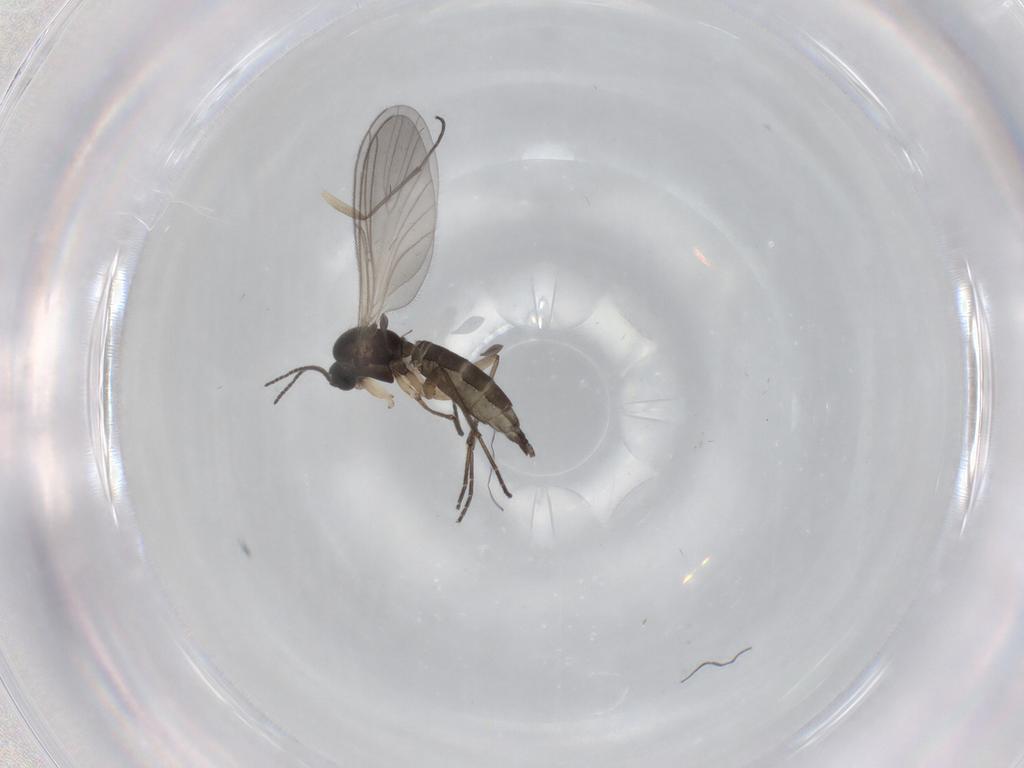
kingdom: Animalia
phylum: Arthropoda
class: Insecta
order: Diptera
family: Sciaridae
